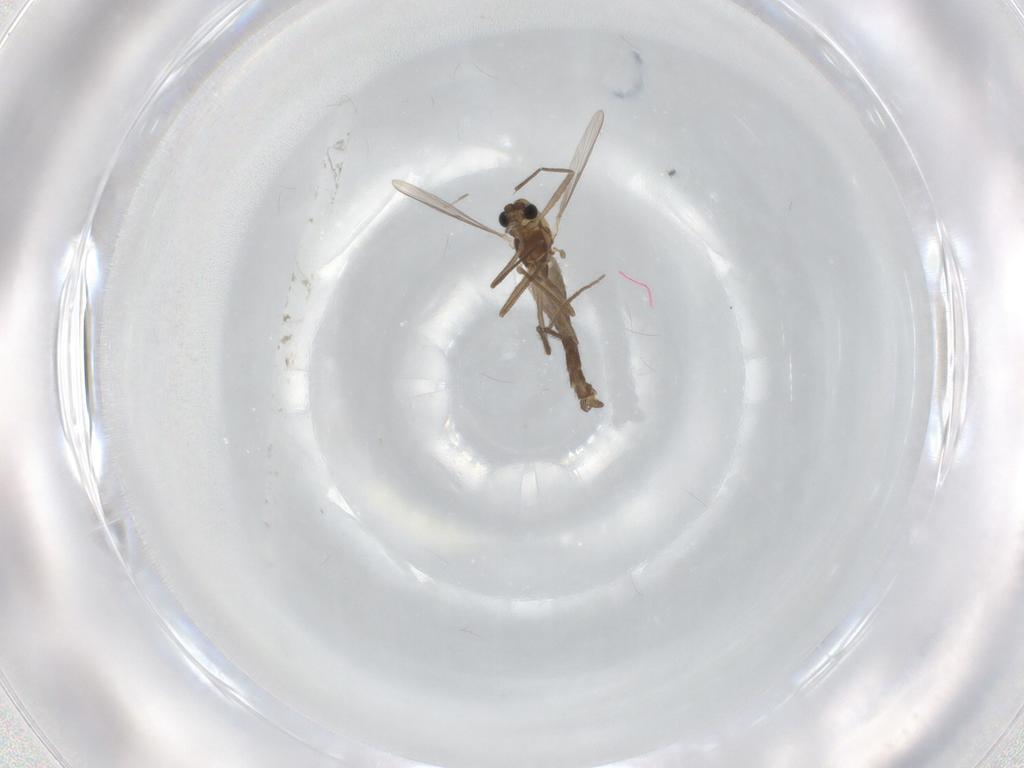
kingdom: Animalia
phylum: Arthropoda
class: Insecta
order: Diptera
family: Chironomidae
